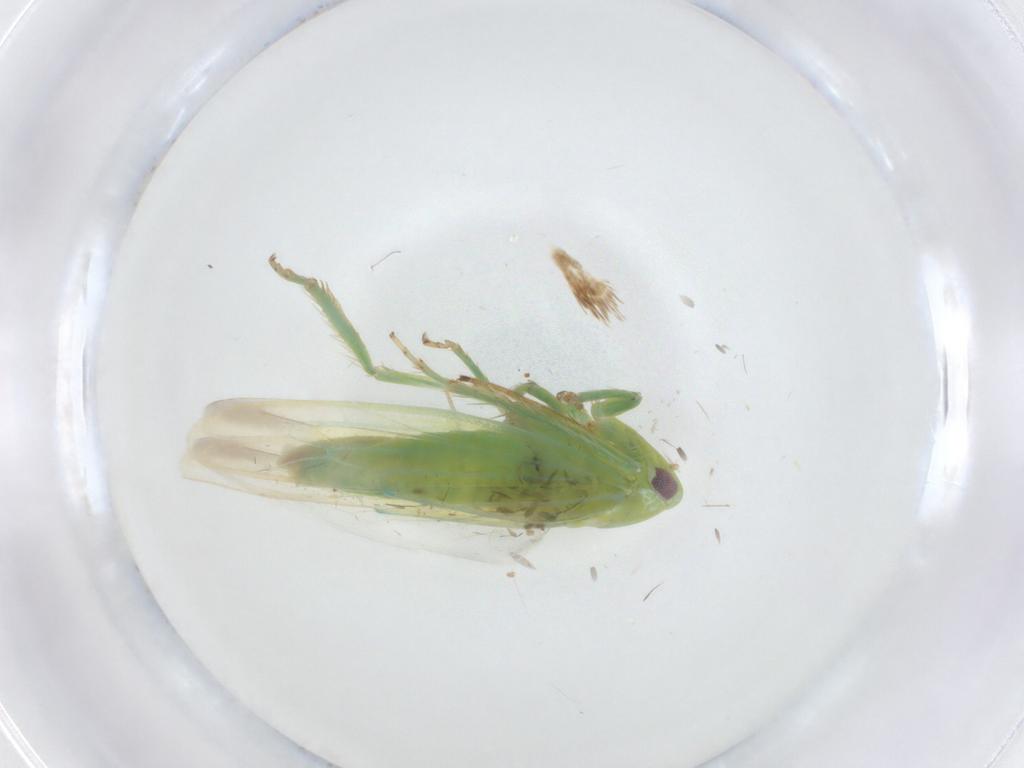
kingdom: Animalia
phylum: Arthropoda
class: Insecta
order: Hemiptera
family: Cicadellidae
